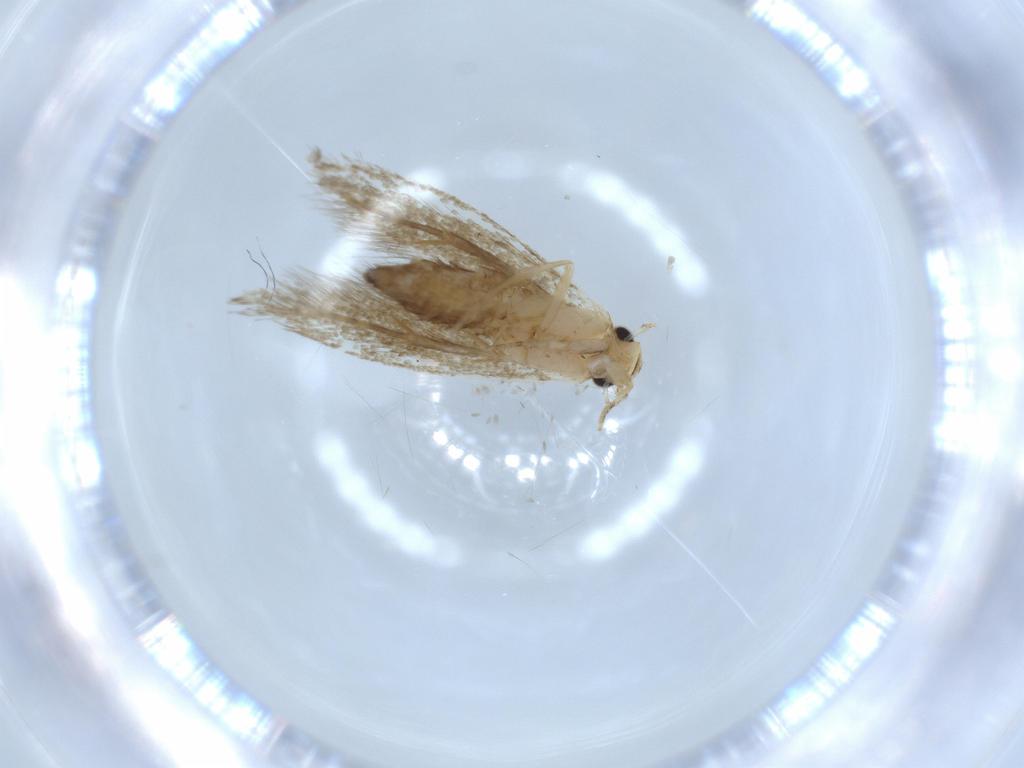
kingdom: Animalia
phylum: Arthropoda
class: Insecta
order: Lepidoptera
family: Tineidae
